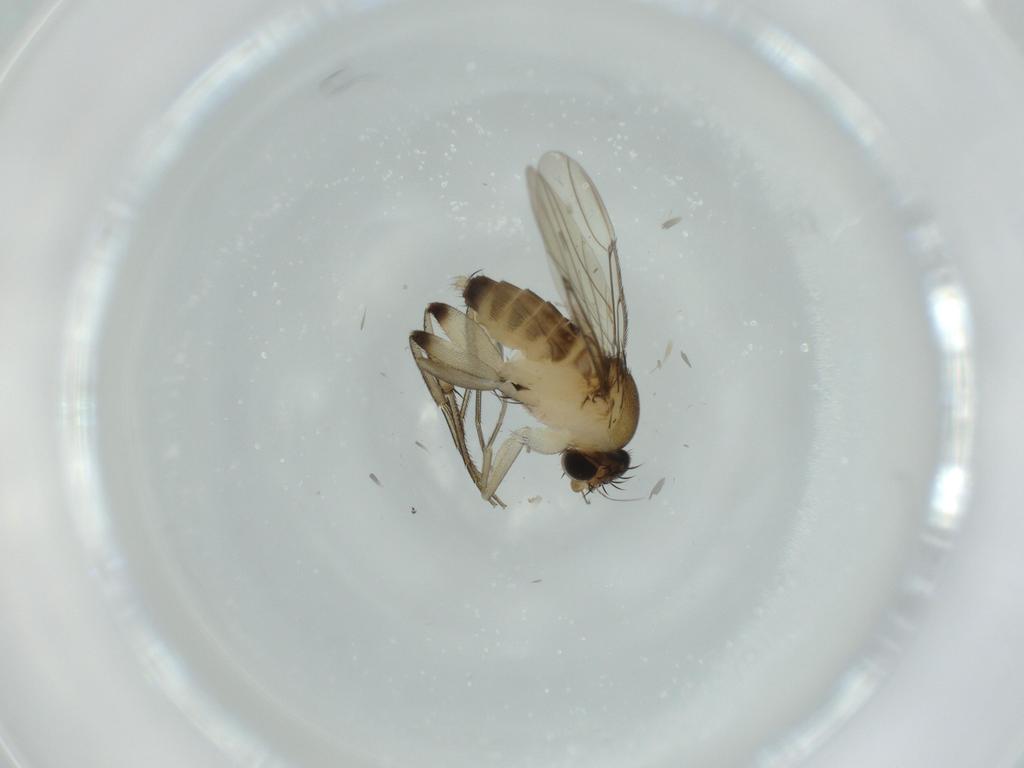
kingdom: Animalia
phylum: Arthropoda
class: Insecta
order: Diptera
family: Phoridae
